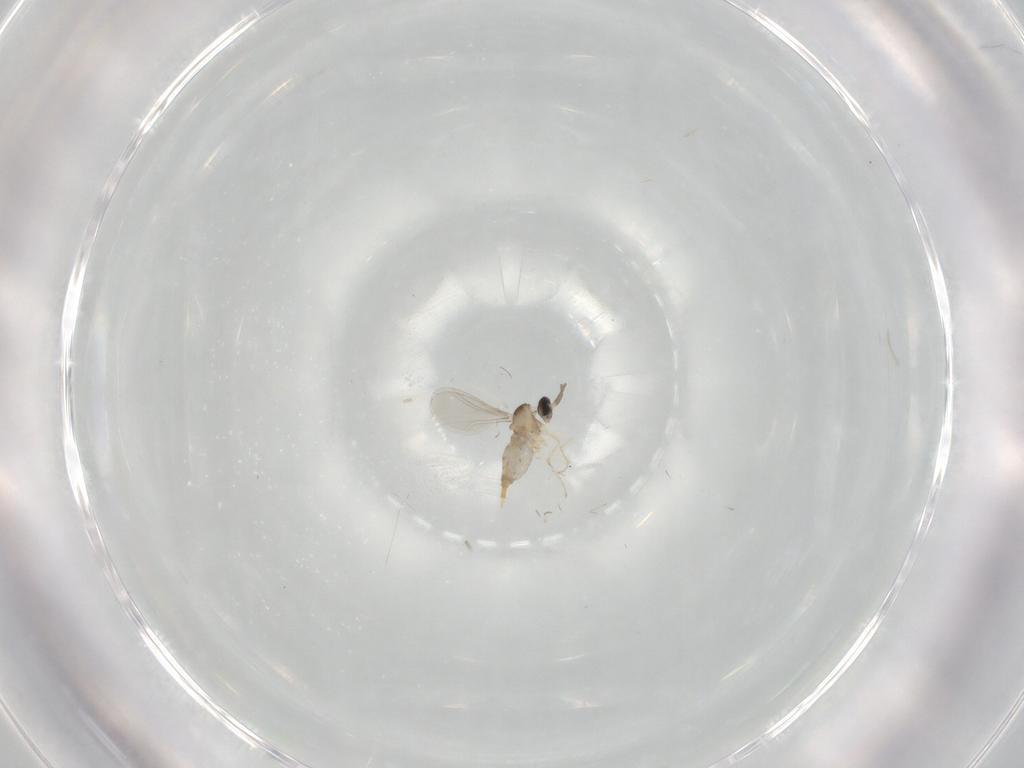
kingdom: Animalia
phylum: Arthropoda
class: Insecta
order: Diptera
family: Cecidomyiidae
